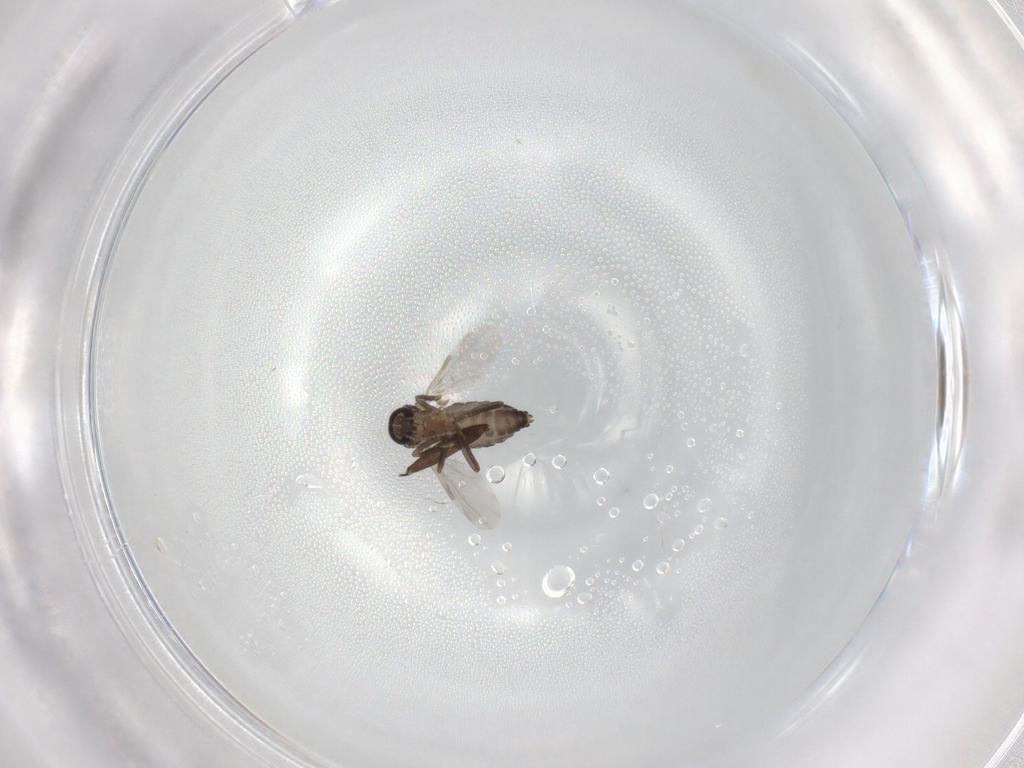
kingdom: Animalia
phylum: Arthropoda
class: Insecta
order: Diptera
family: Ceratopogonidae
